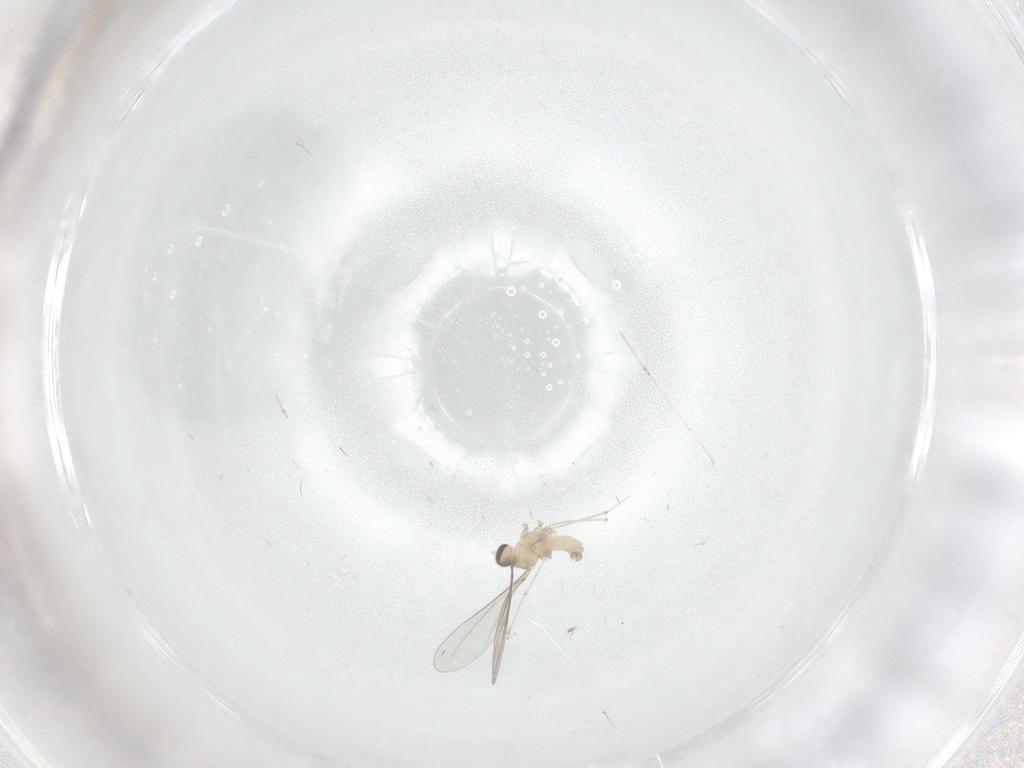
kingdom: Animalia
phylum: Arthropoda
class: Insecta
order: Diptera
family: Cecidomyiidae
